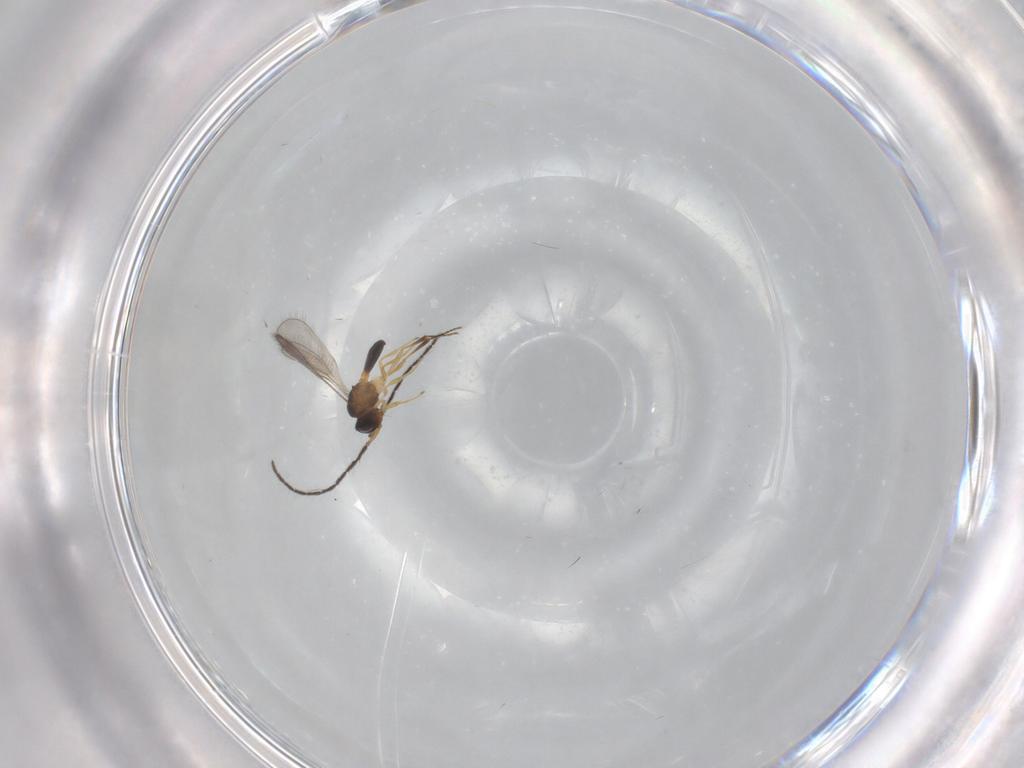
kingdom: Animalia
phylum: Arthropoda
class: Insecta
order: Hymenoptera
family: Scelionidae
